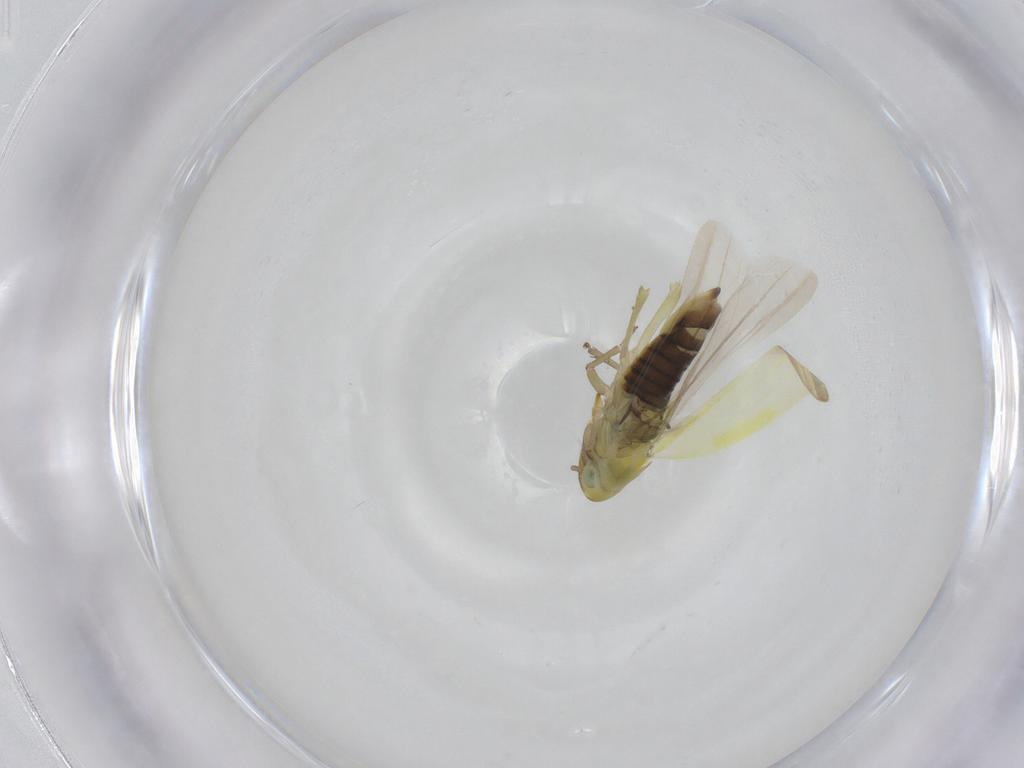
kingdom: Animalia
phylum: Arthropoda
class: Insecta
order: Hemiptera
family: Cicadellidae
